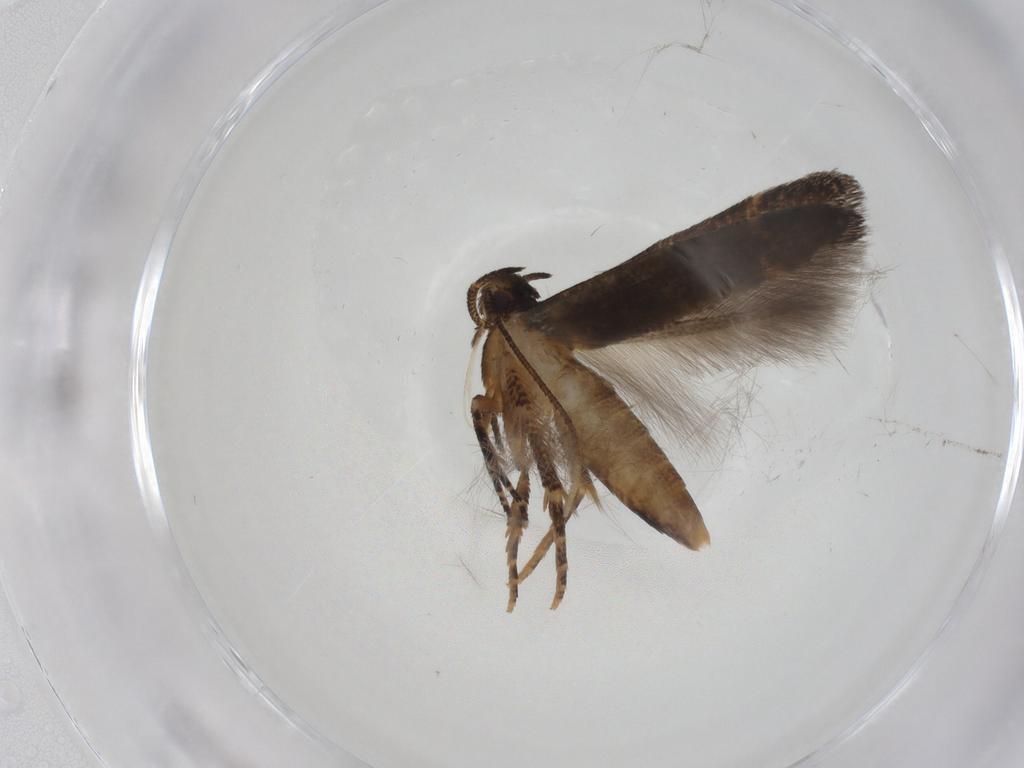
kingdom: Animalia
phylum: Arthropoda
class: Insecta
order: Lepidoptera
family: Cosmopterigidae
